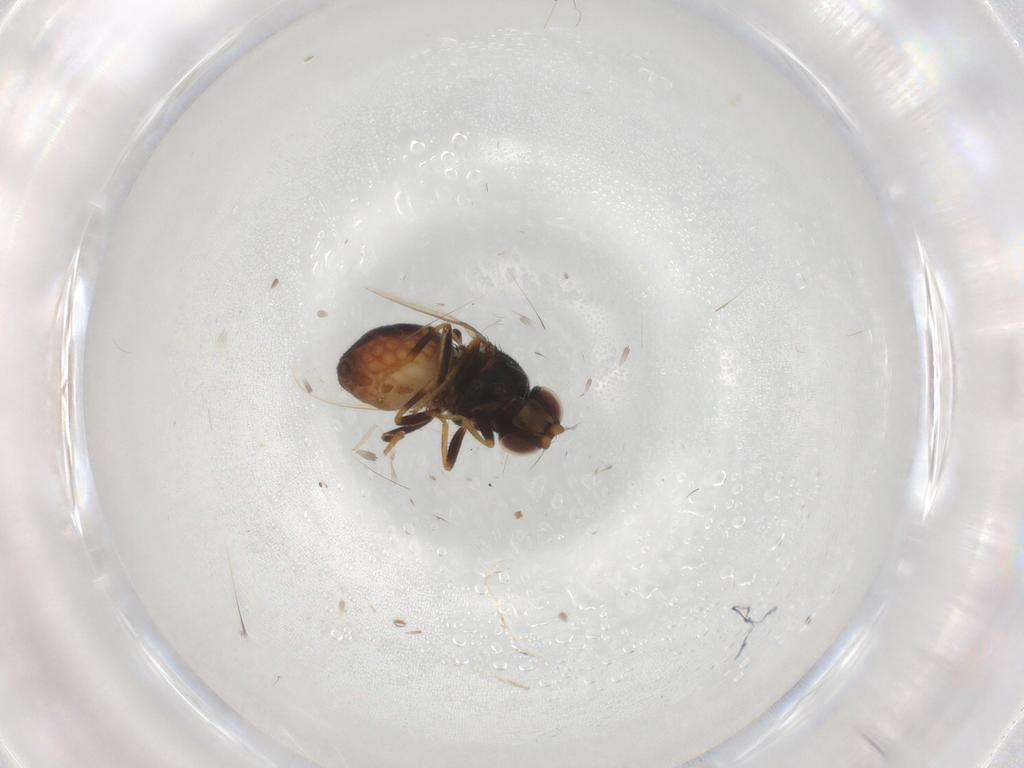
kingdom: Animalia
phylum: Arthropoda
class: Insecta
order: Diptera
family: Chloropidae
